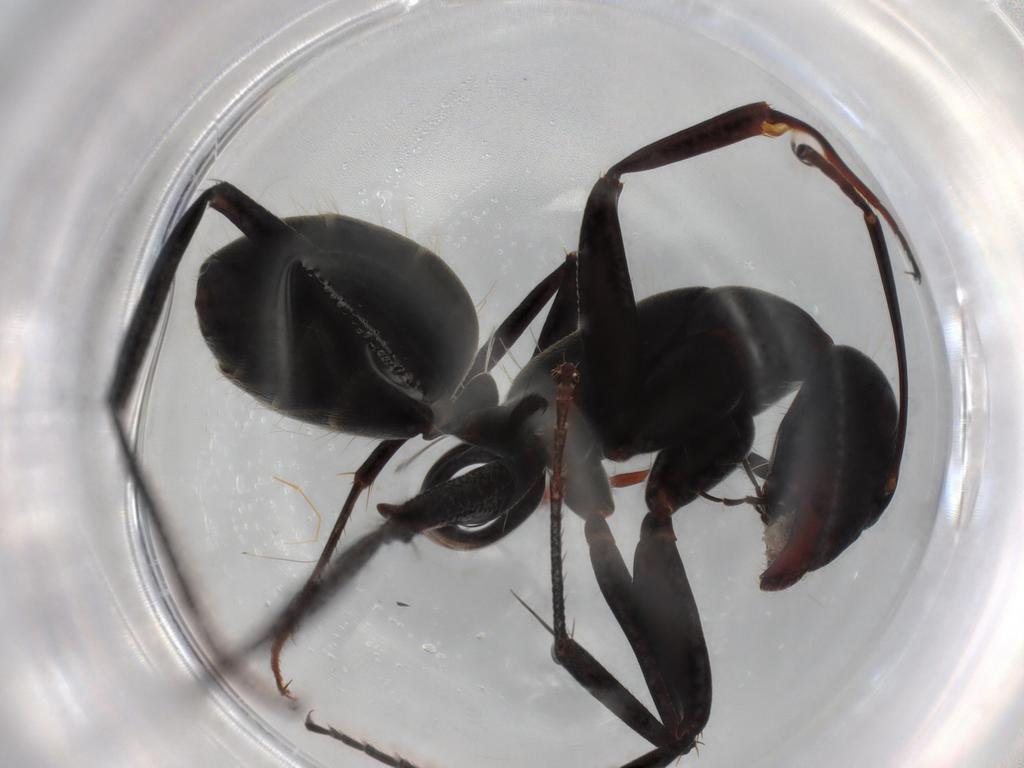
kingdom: Animalia
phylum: Arthropoda
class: Insecta
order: Hymenoptera
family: Formicidae
